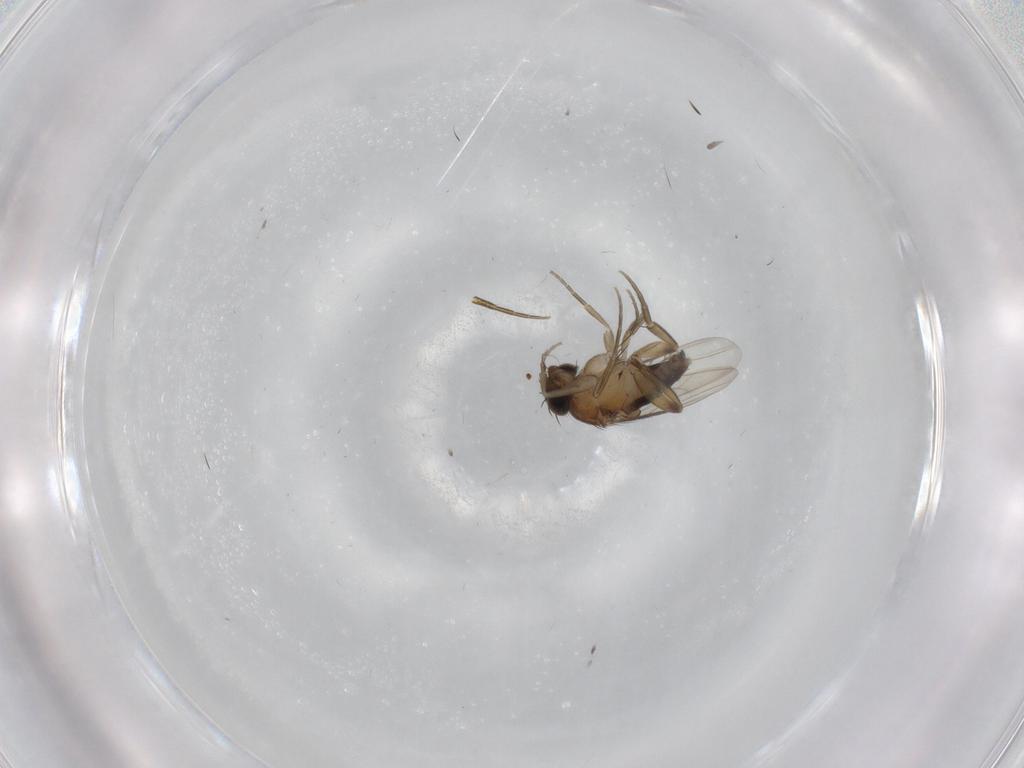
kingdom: Animalia
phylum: Arthropoda
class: Insecta
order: Diptera
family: Phoridae
